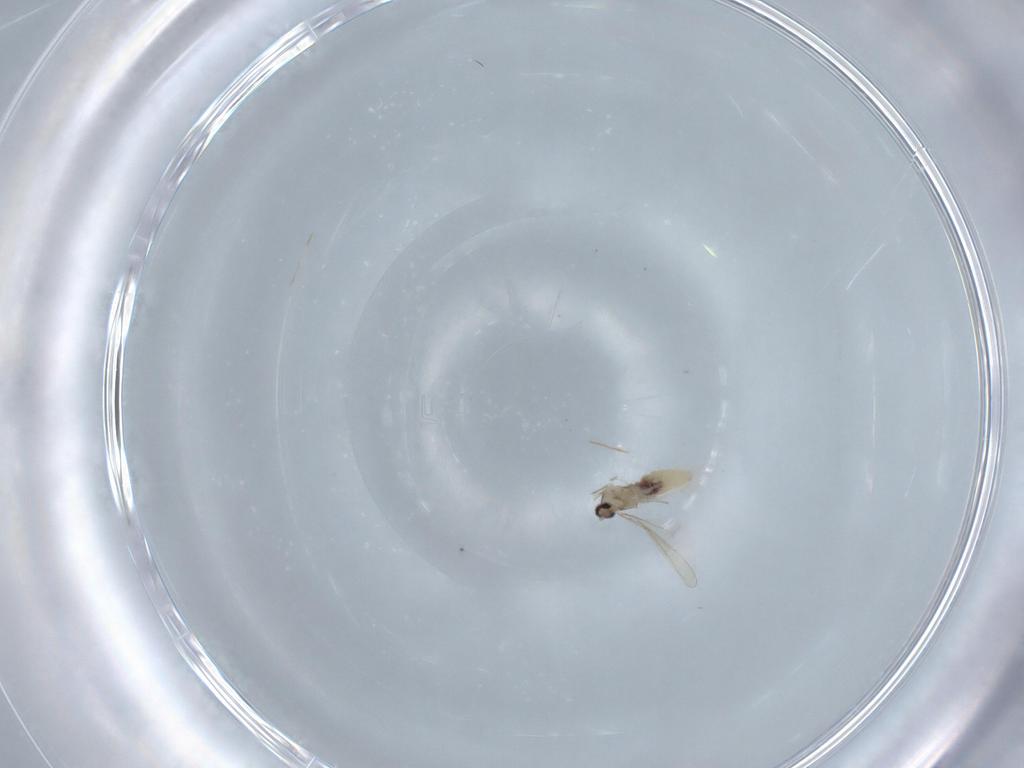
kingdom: Animalia
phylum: Arthropoda
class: Insecta
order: Diptera
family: Cecidomyiidae
